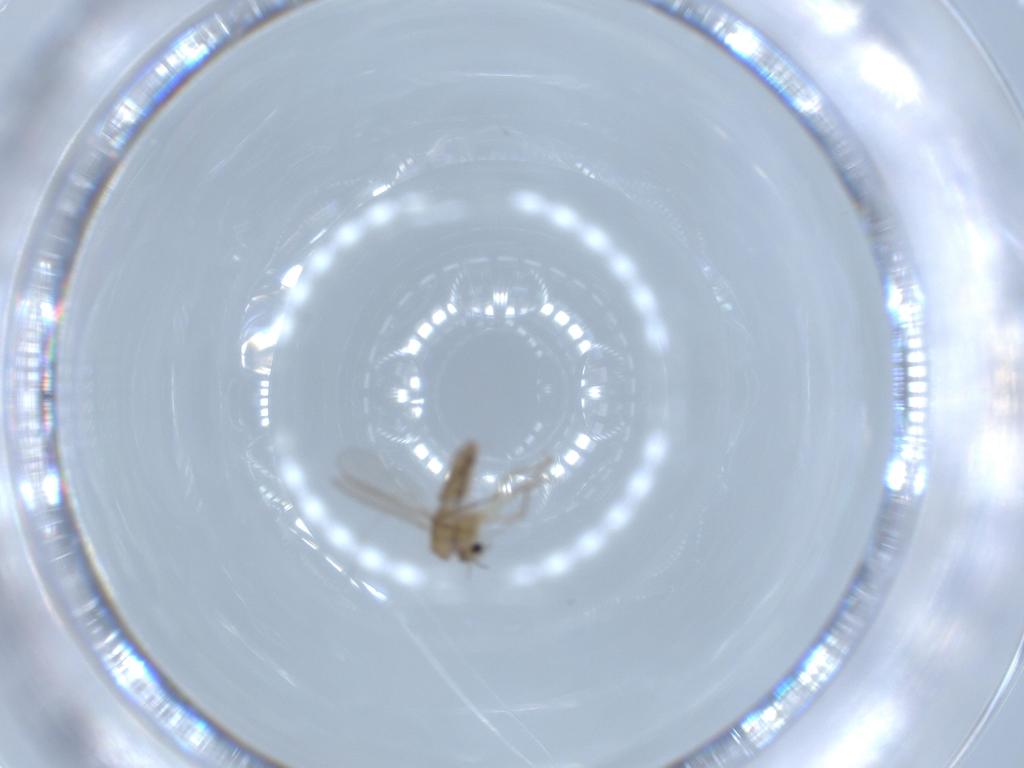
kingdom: Animalia
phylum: Arthropoda
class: Insecta
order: Diptera
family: Chironomidae
